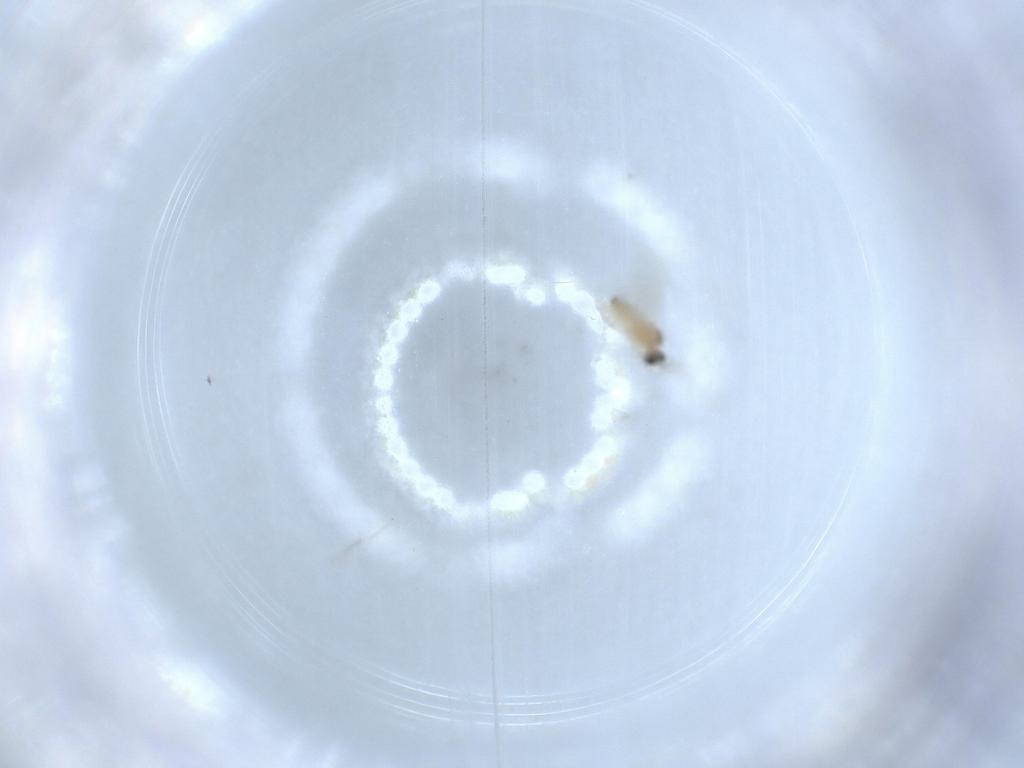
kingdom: Animalia
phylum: Arthropoda
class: Insecta
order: Diptera
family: Cecidomyiidae
